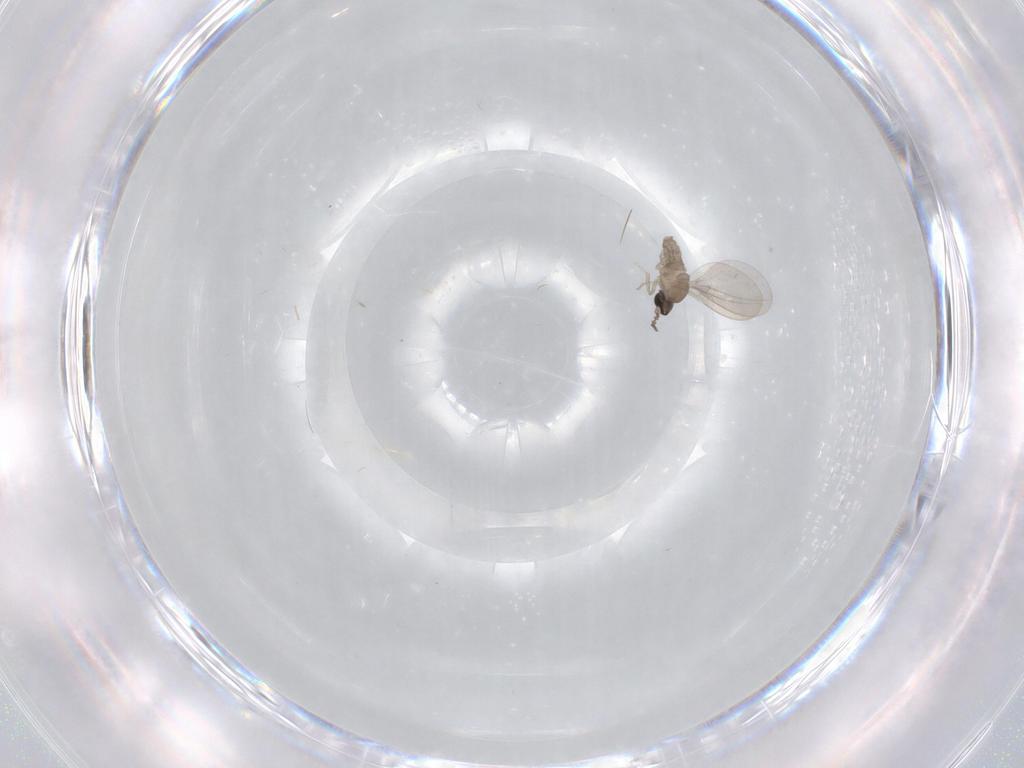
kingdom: Animalia
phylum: Arthropoda
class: Insecta
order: Diptera
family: Cecidomyiidae
